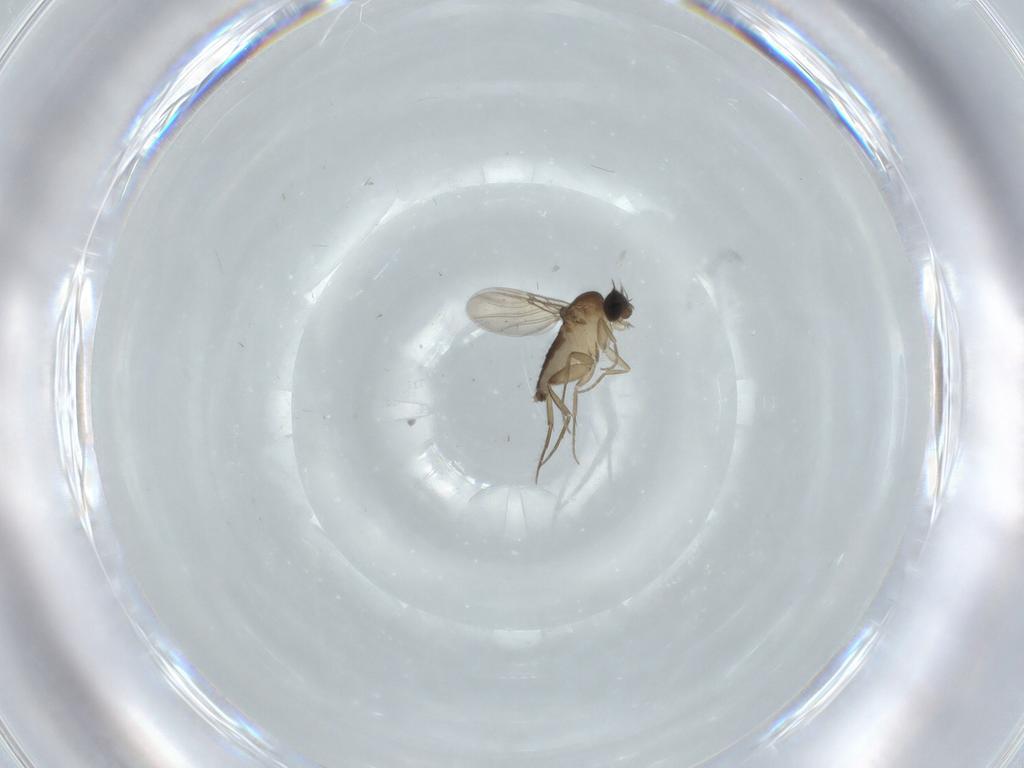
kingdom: Animalia
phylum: Arthropoda
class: Insecta
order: Diptera
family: Phoridae
